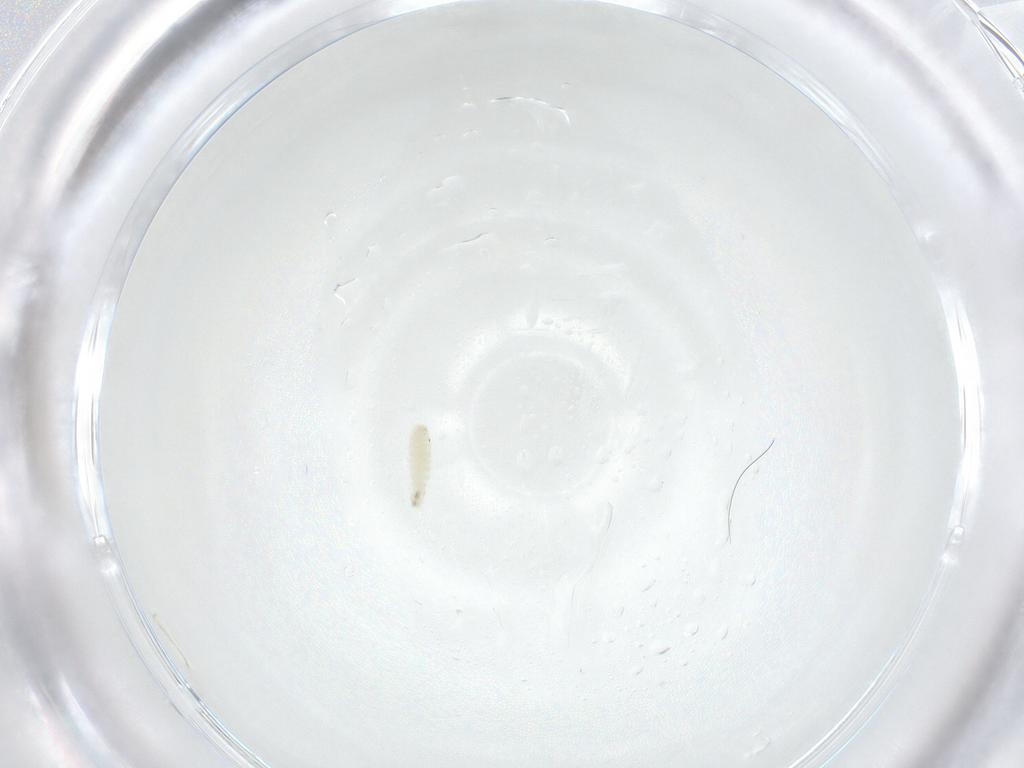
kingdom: Animalia
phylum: Arthropoda
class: Insecta
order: Diptera
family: Sarcophagidae
